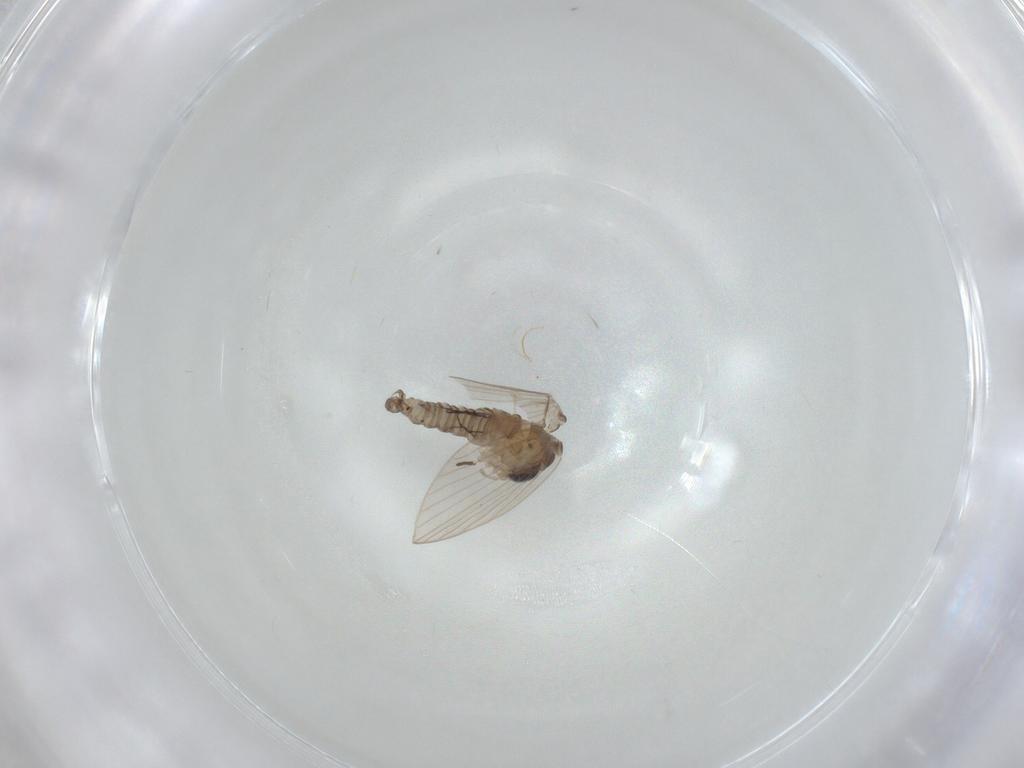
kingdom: Animalia
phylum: Arthropoda
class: Insecta
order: Diptera
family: Psychodidae
